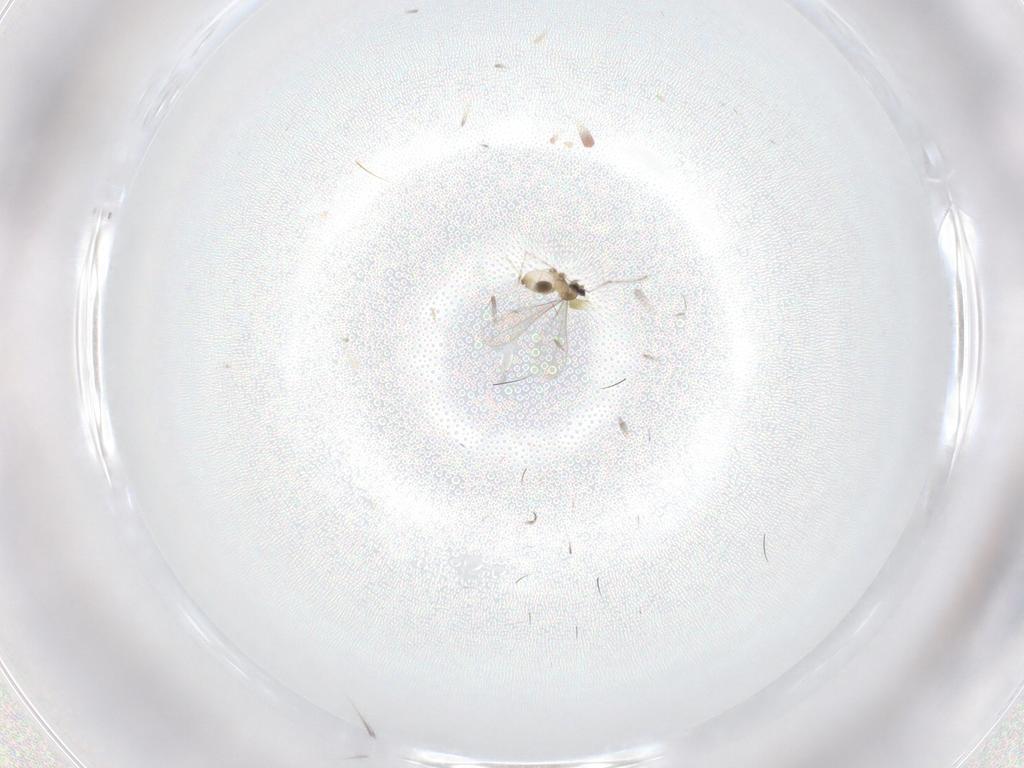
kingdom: Animalia
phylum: Arthropoda
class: Insecta
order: Diptera
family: Cecidomyiidae
